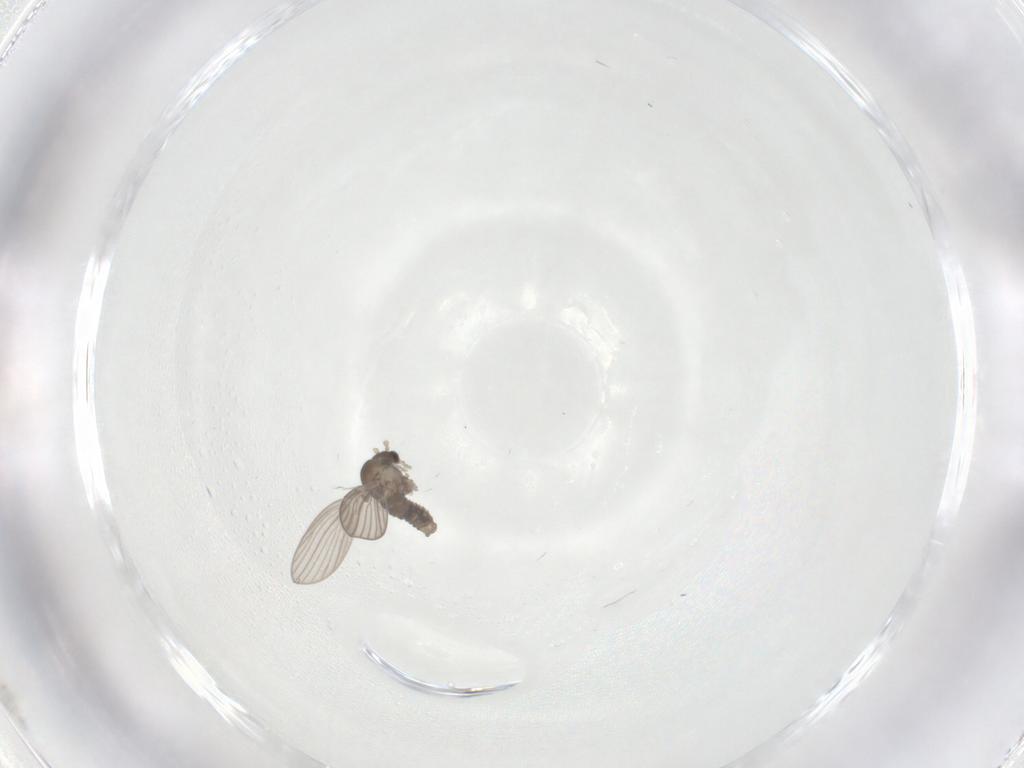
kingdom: Animalia
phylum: Arthropoda
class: Insecta
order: Diptera
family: Psychodidae
